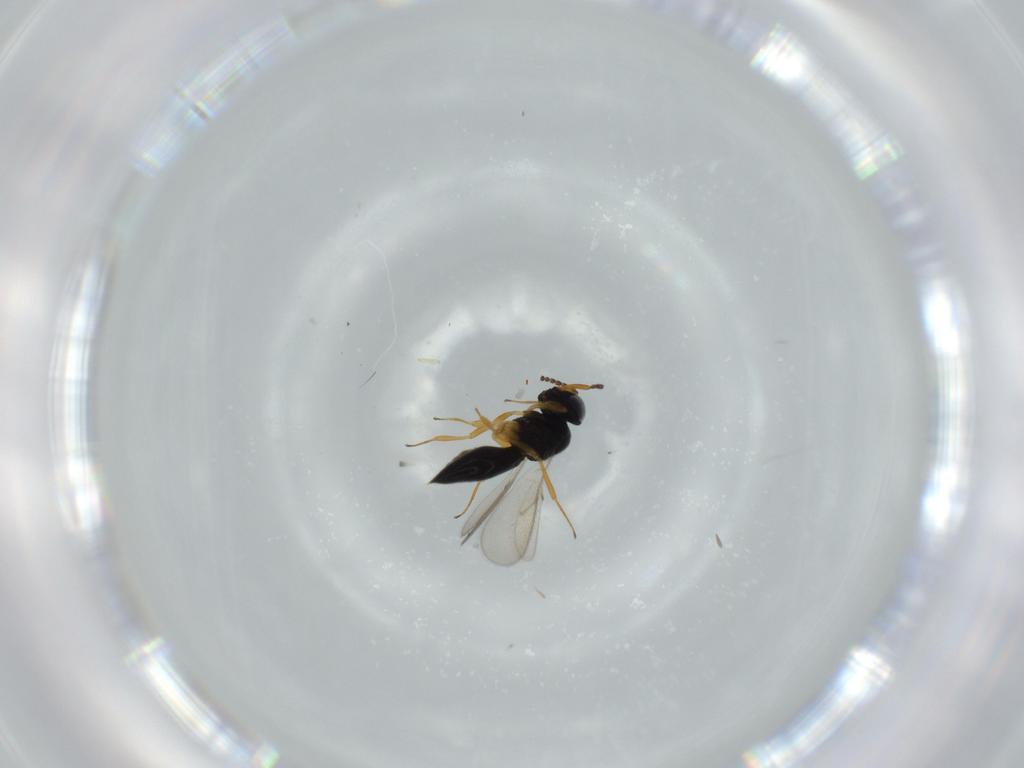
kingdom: Animalia
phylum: Arthropoda
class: Insecta
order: Hymenoptera
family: Scelionidae
